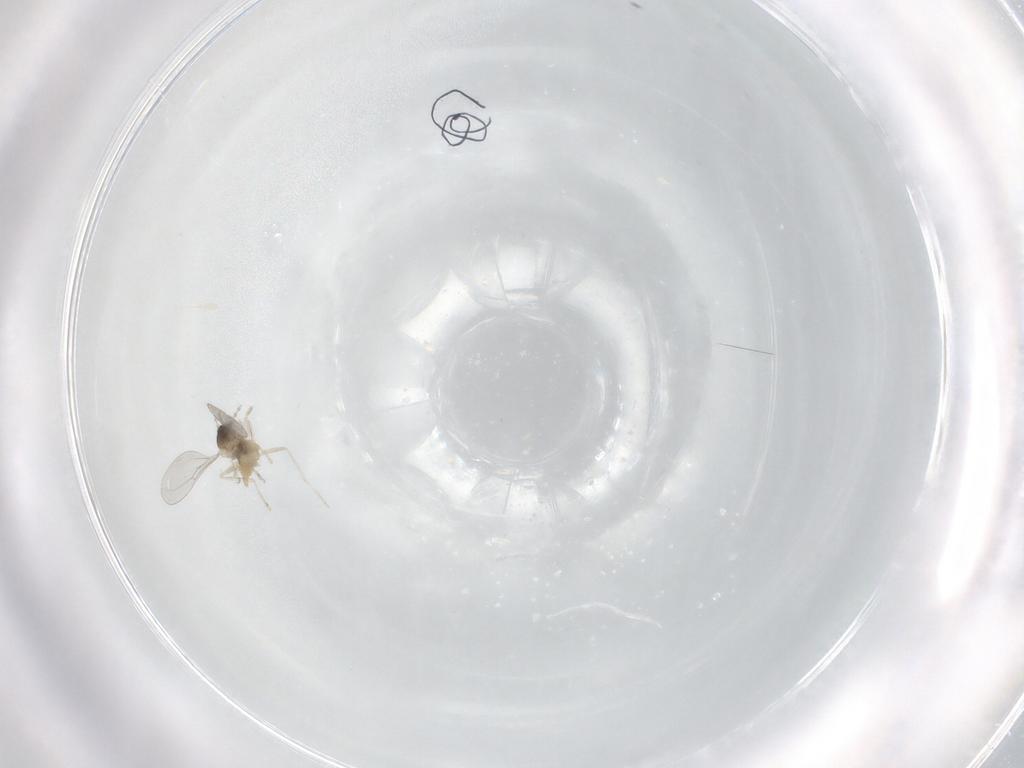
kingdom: Animalia
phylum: Arthropoda
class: Insecta
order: Diptera
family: Cecidomyiidae
